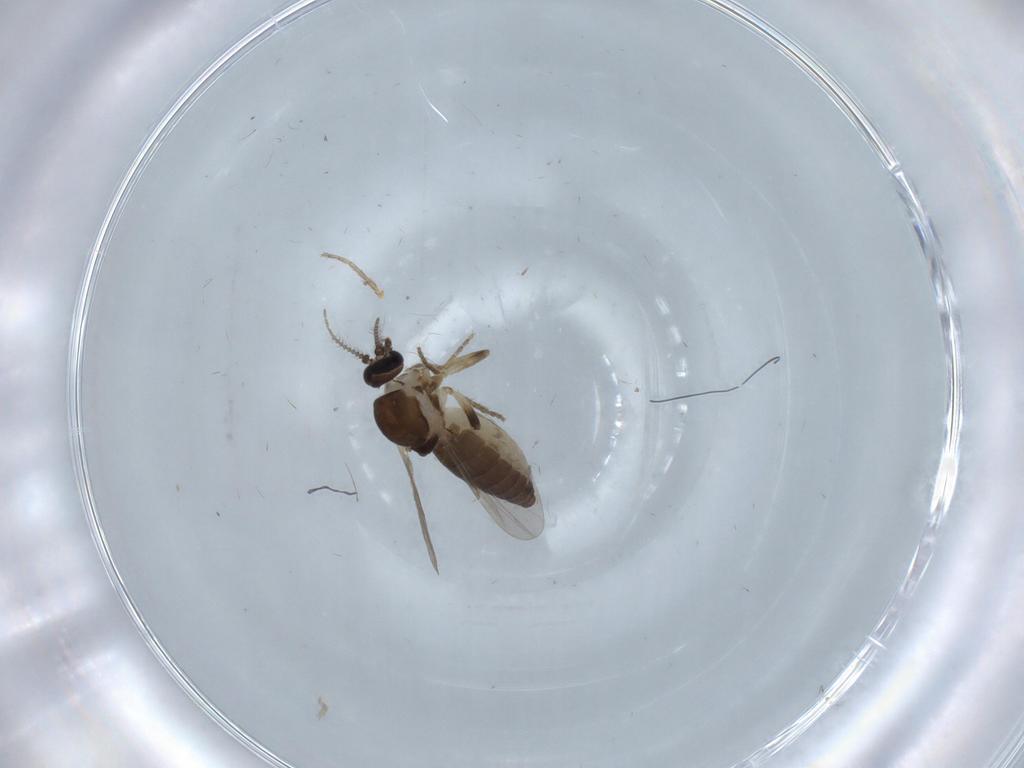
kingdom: Animalia
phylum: Arthropoda
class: Insecta
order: Diptera
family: Ceratopogonidae
